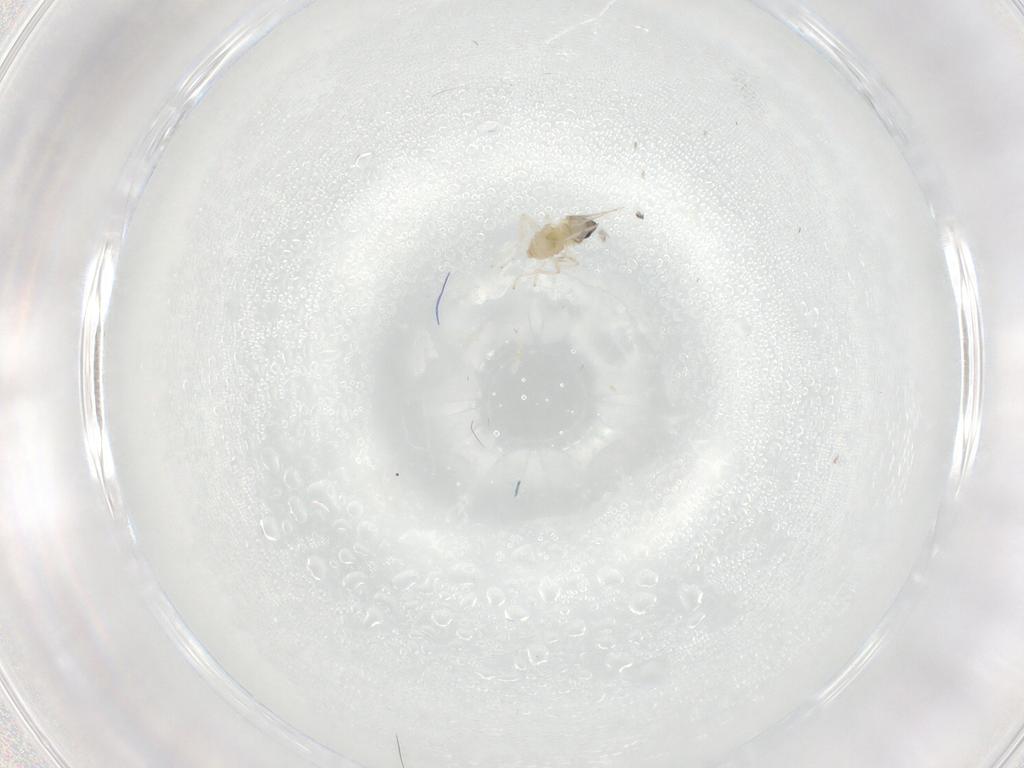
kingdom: Animalia
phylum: Arthropoda
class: Insecta
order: Diptera
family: Cecidomyiidae
